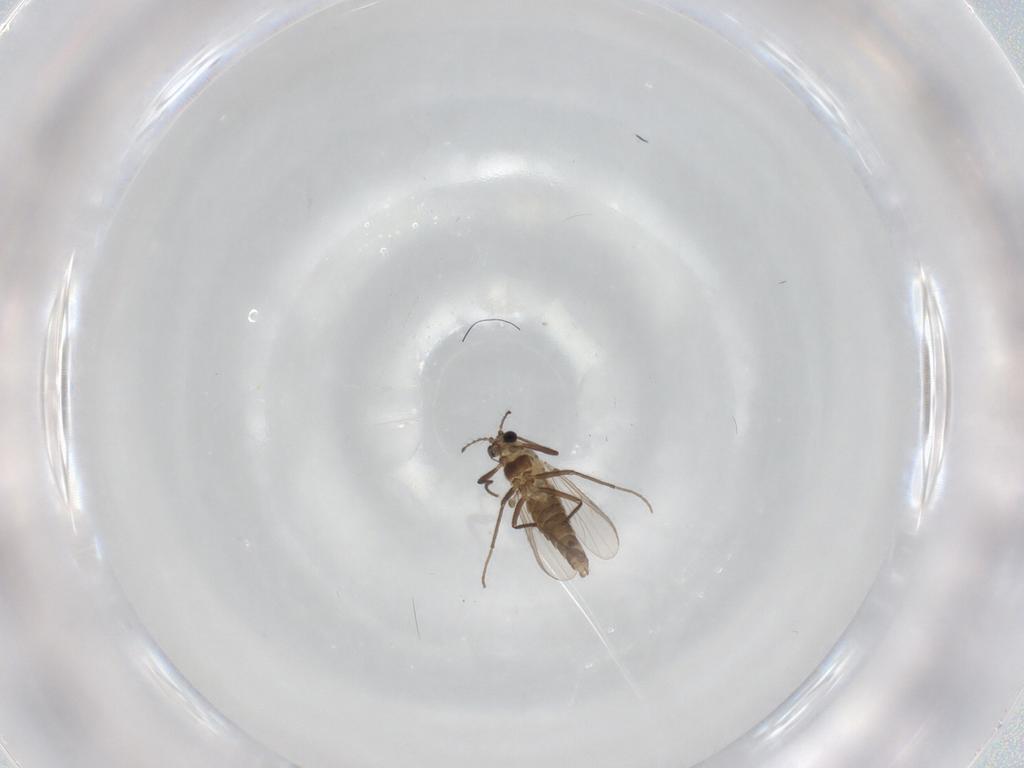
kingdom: Animalia
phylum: Arthropoda
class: Insecta
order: Diptera
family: Chironomidae
